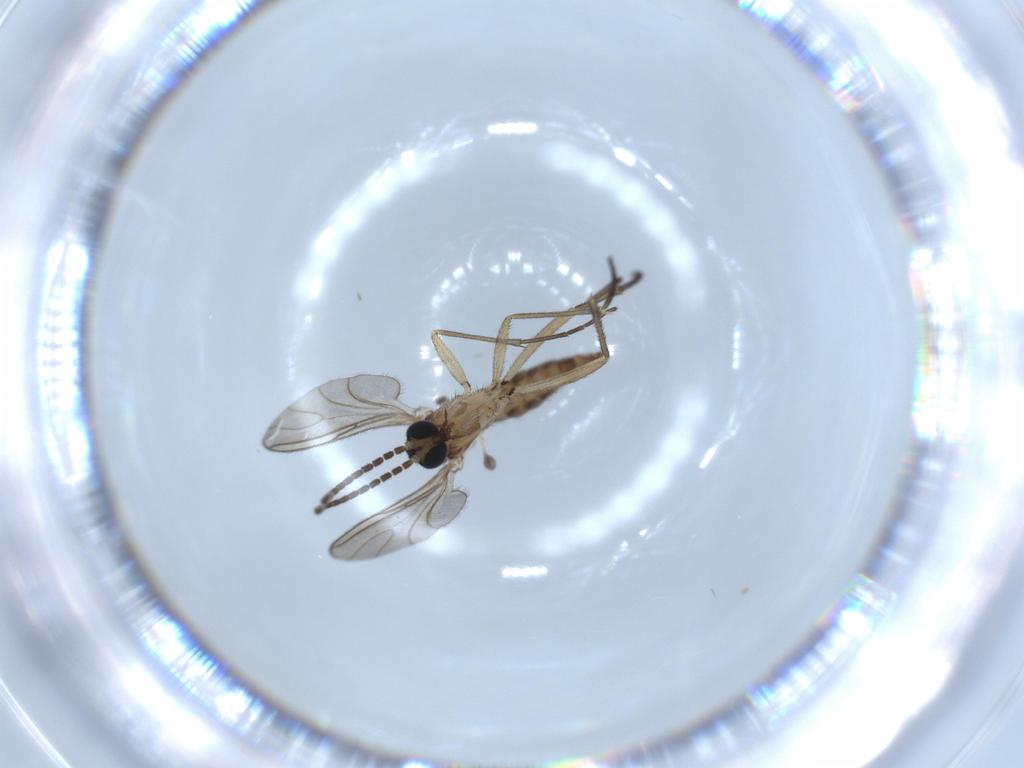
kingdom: Animalia
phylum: Arthropoda
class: Insecta
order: Diptera
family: Sciaridae
